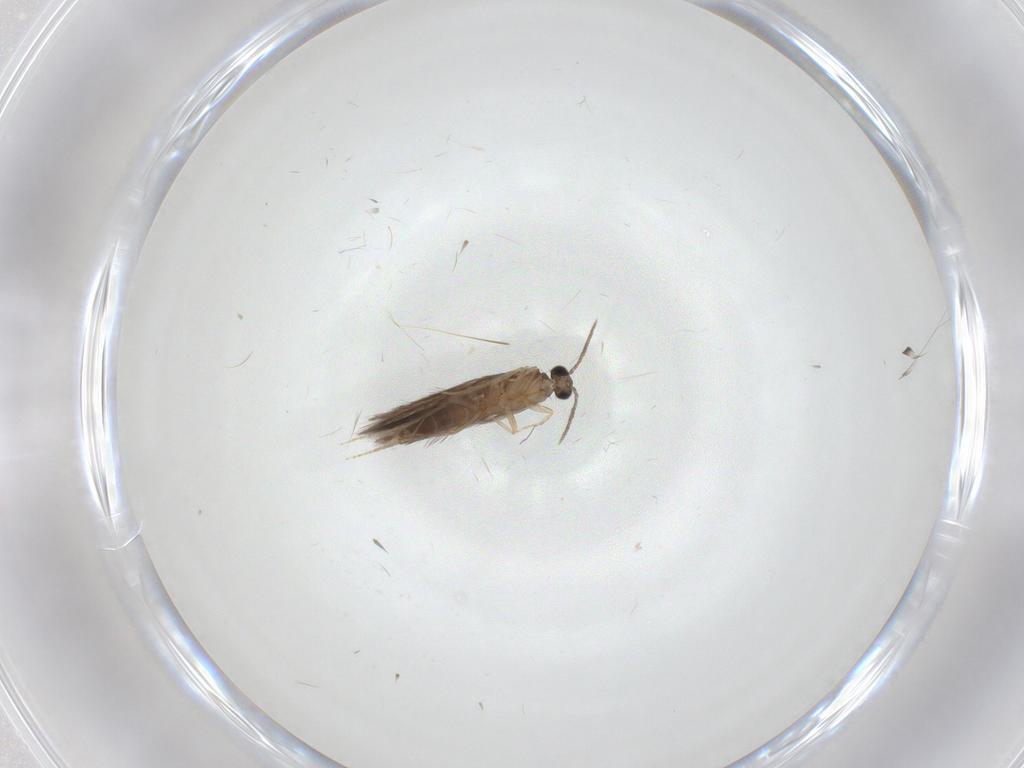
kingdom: Animalia
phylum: Arthropoda
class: Insecta
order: Trichoptera
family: Hydroptilidae
